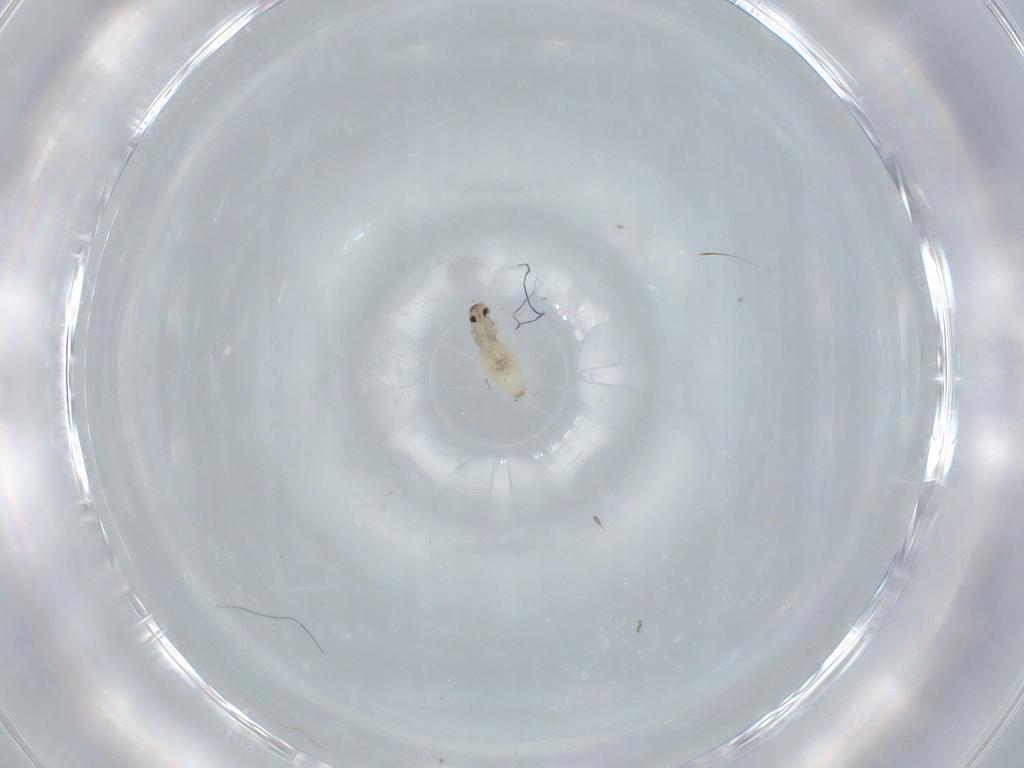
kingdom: Animalia
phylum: Arthropoda
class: Insecta
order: Diptera
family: Cecidomyiidae
